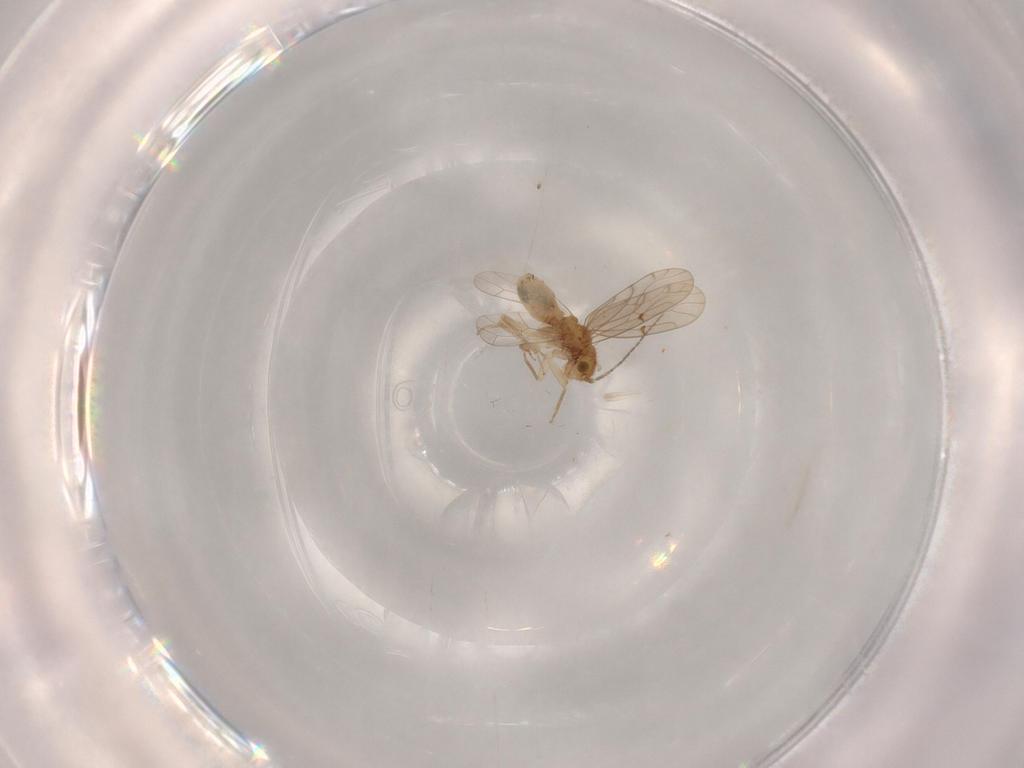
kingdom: Animalia
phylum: Arthropoda
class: Insecta
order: Psocodea
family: Ectopsocidae
